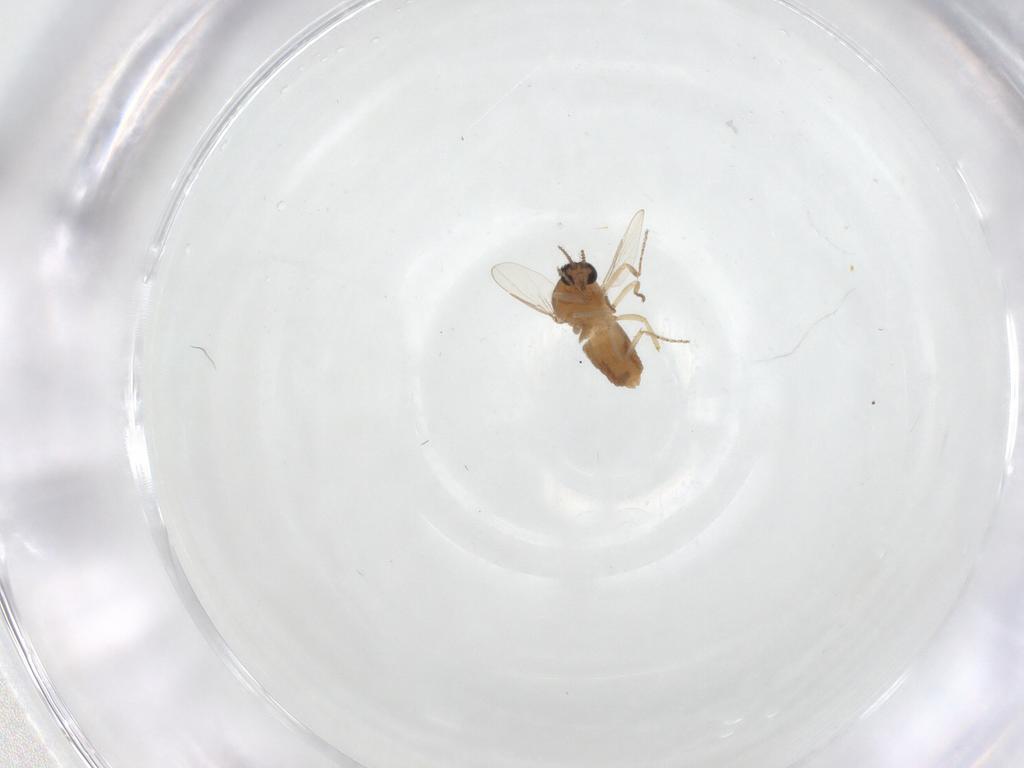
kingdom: Animalia
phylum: Arthropoda
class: Insecta
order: Diptera
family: Ceratopogonidae
